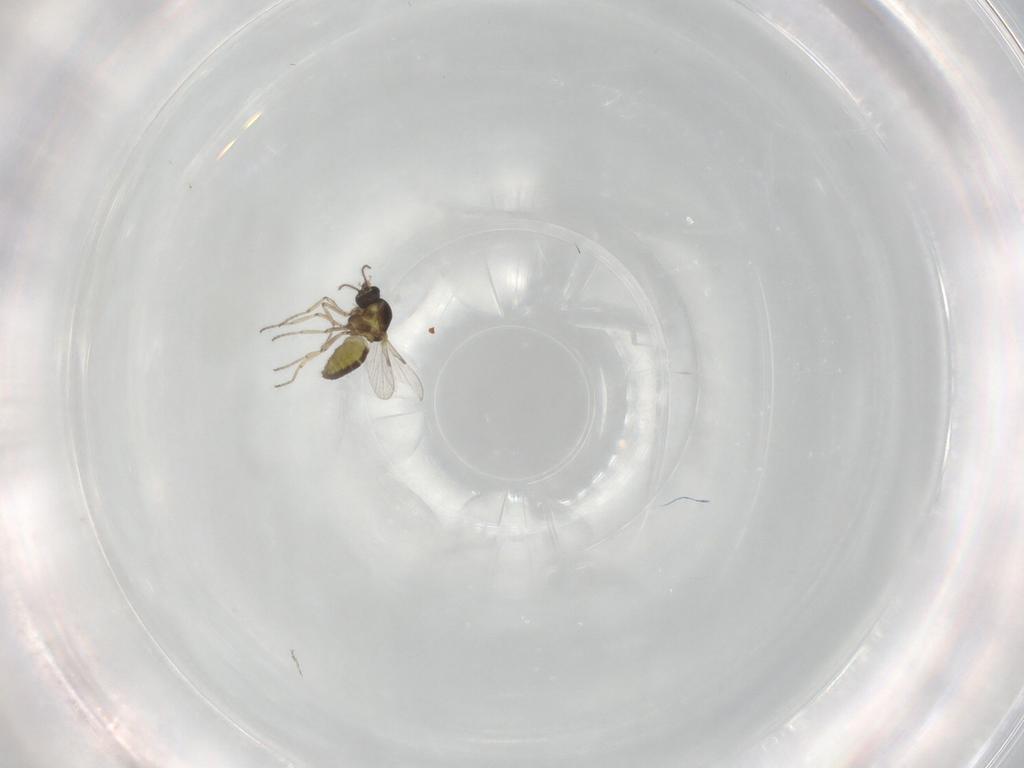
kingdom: Animalia
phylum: Arthropoda
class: Insecta
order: Diptera
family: Ceratopogonidae
